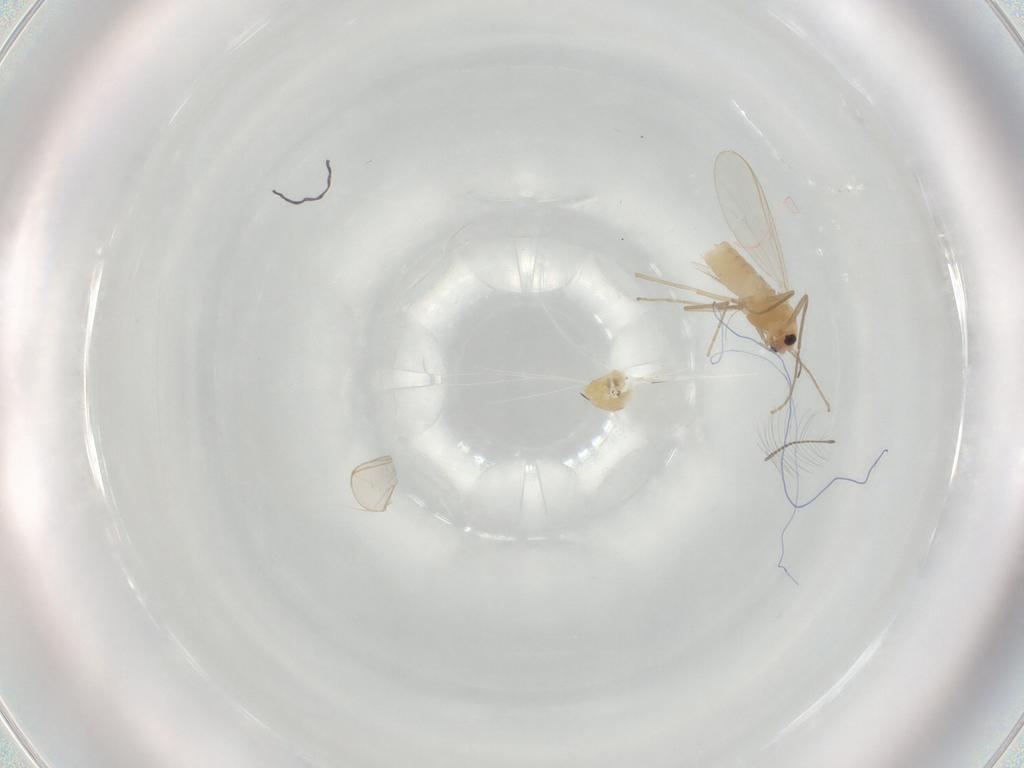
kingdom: Animalia
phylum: Arthropoda
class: Insecta
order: Diptera
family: Chironomidae
